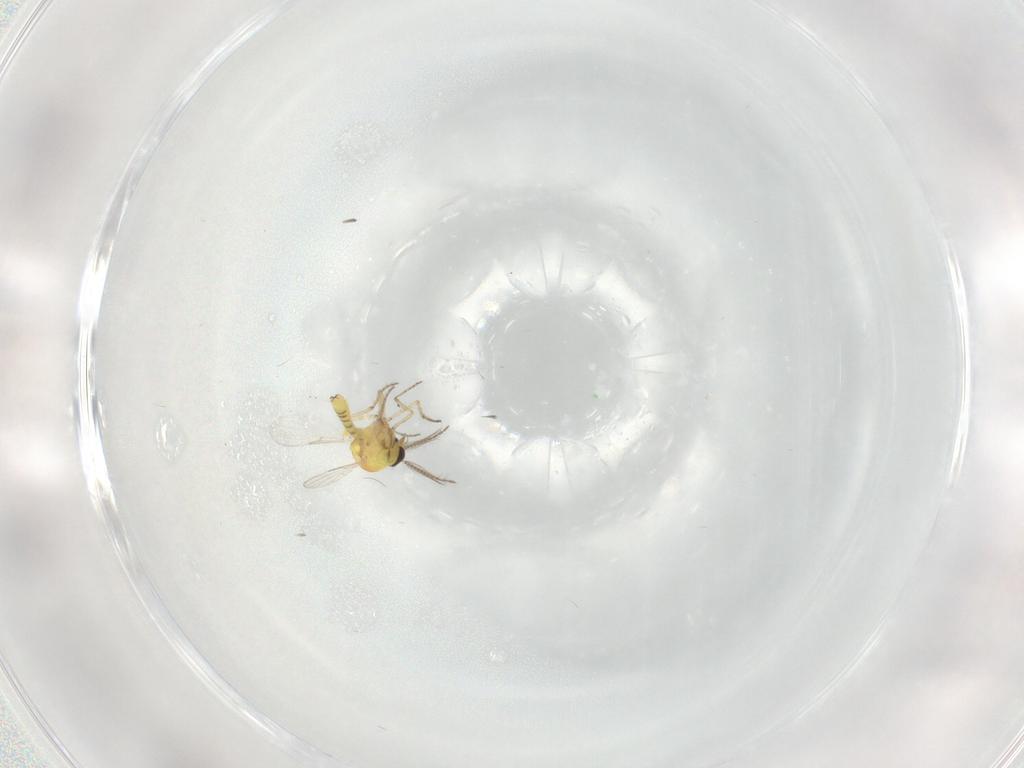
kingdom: Animalia
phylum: Arthropoda
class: Insecta
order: Diptera
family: Ceratopogonidae
